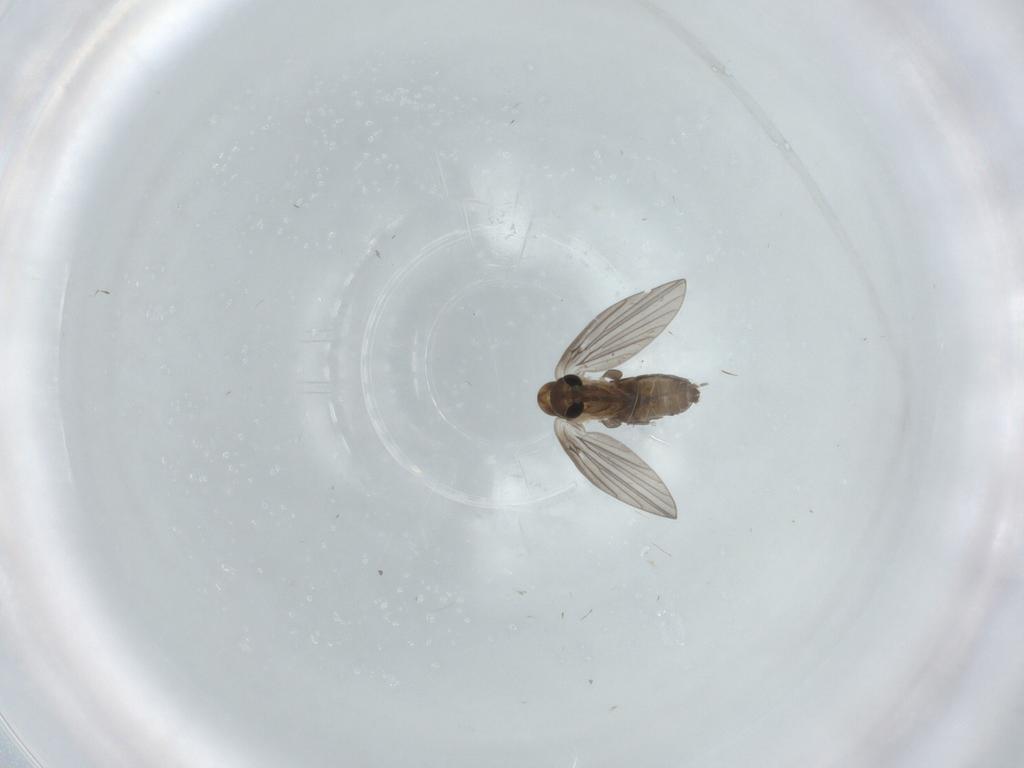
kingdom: Animalia
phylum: Arthropoda
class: Insecta
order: Diptera
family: Psychodidae
